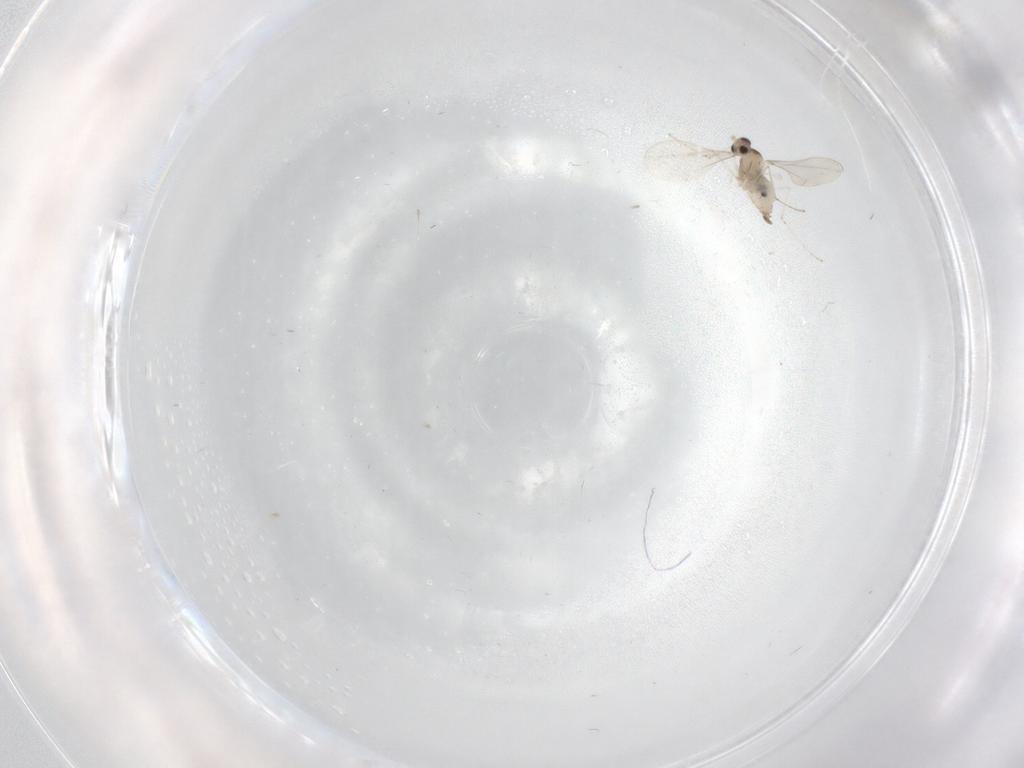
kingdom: Animalia
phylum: Arthropoda
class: Insecta
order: Diptera
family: Cecidomyiidae
